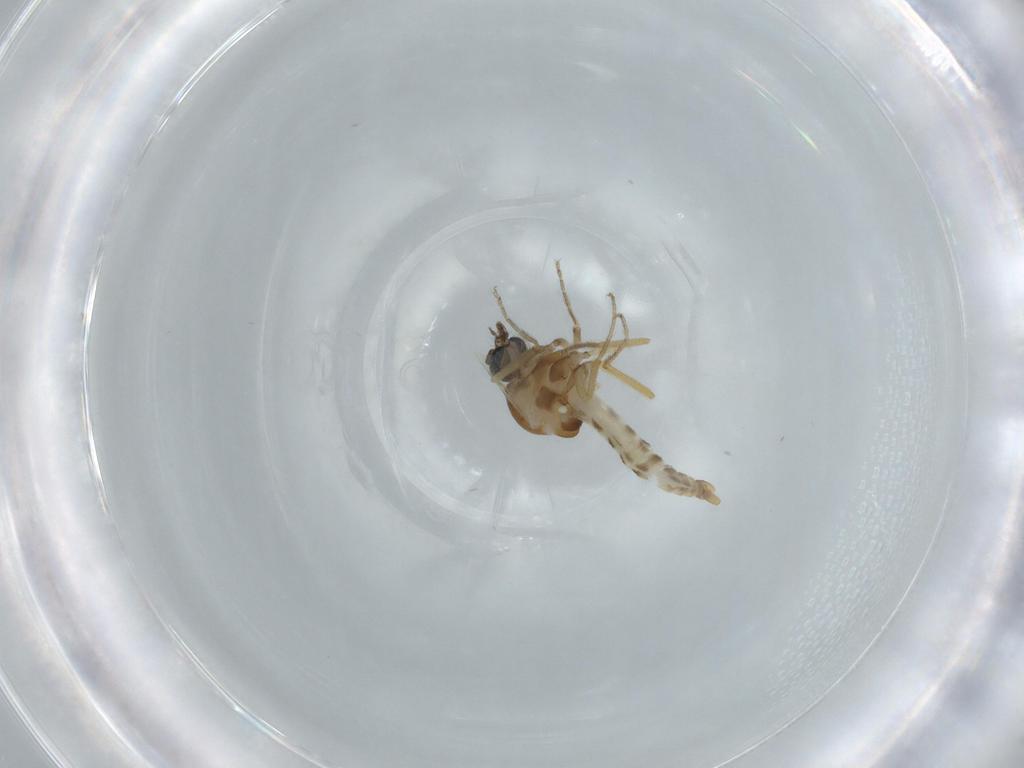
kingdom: Animalia
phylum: Arthropoda
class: Insecta
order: Diptera
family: Ceratopogonidae
